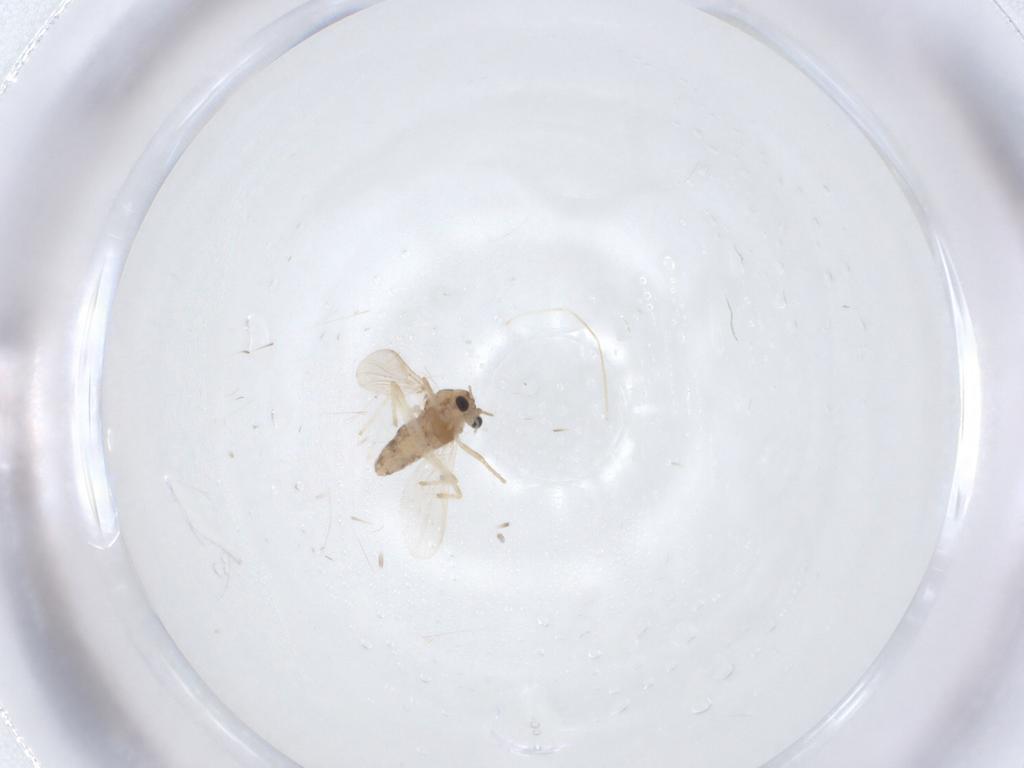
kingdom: Animalia
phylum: Arthropoda
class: Insecta
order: Diptera
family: Chironomidae
